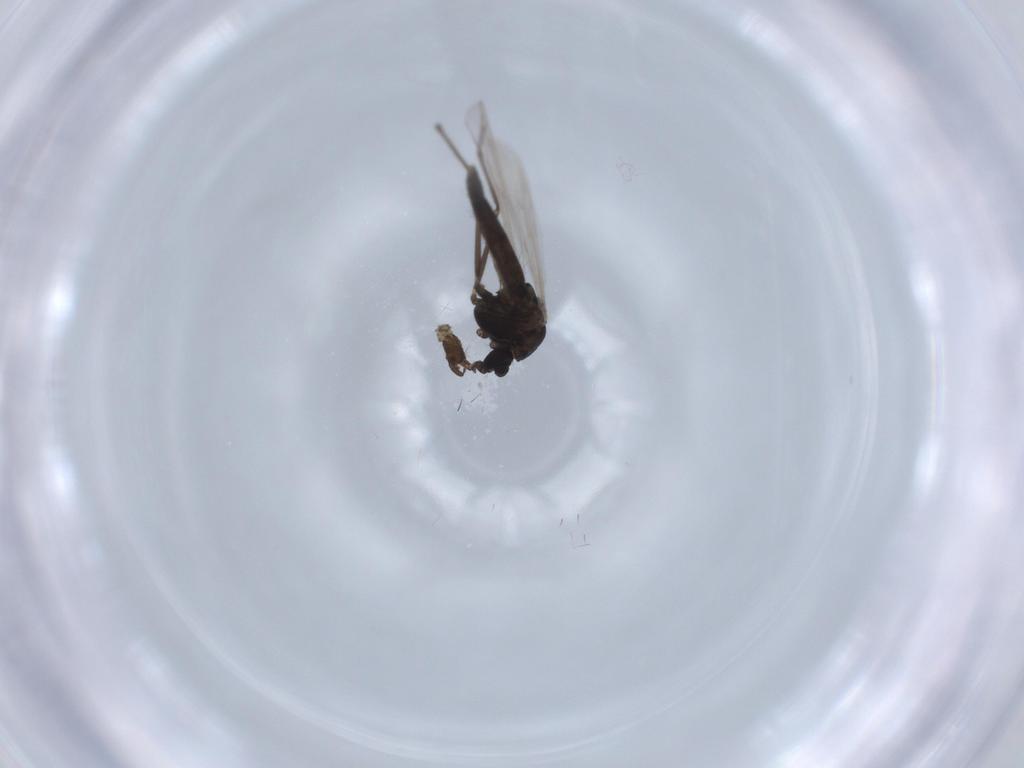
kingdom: Animalia
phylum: Arthropoda
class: Insecta
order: Diptera
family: Chironomidae
